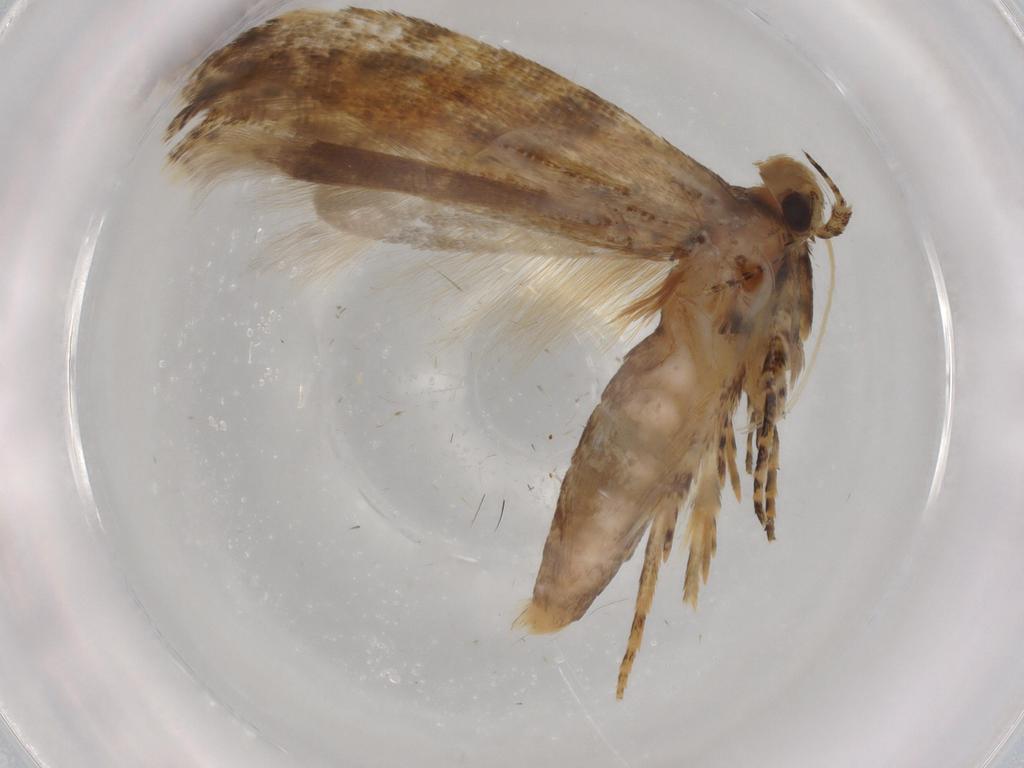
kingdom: Animalia
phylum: Arthropoda
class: Insecta
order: Lepidoptera
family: Gelechiidae
